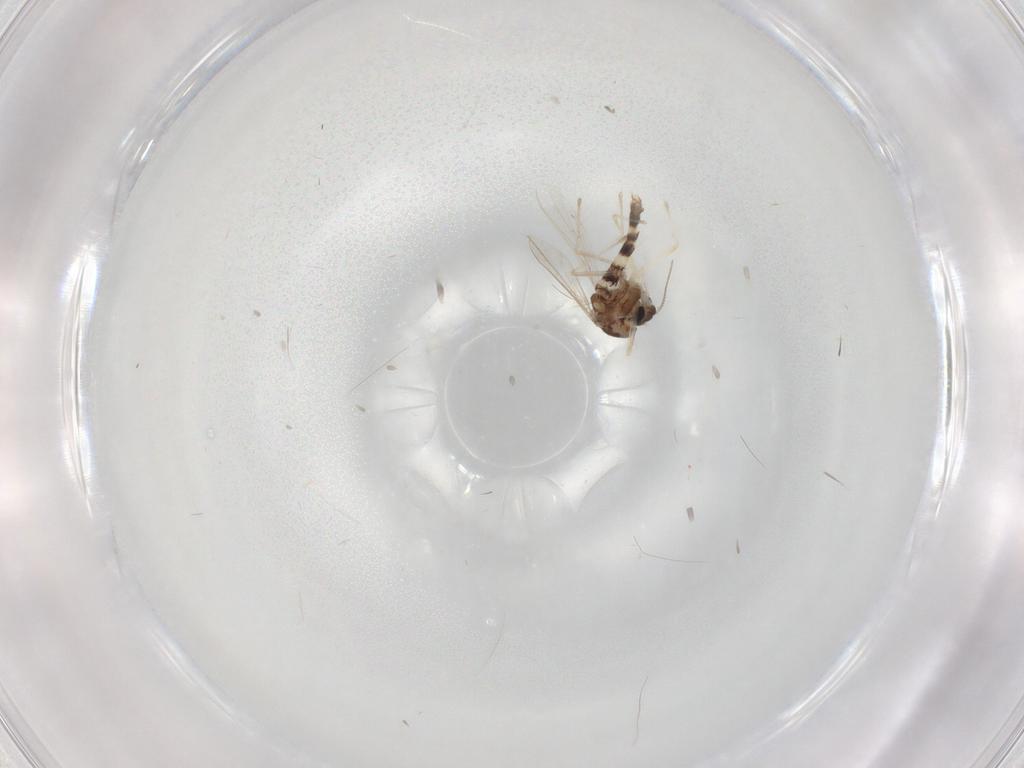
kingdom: Animalia
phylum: Arthropoda
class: Insecta
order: Diptera
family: Chironomidae
